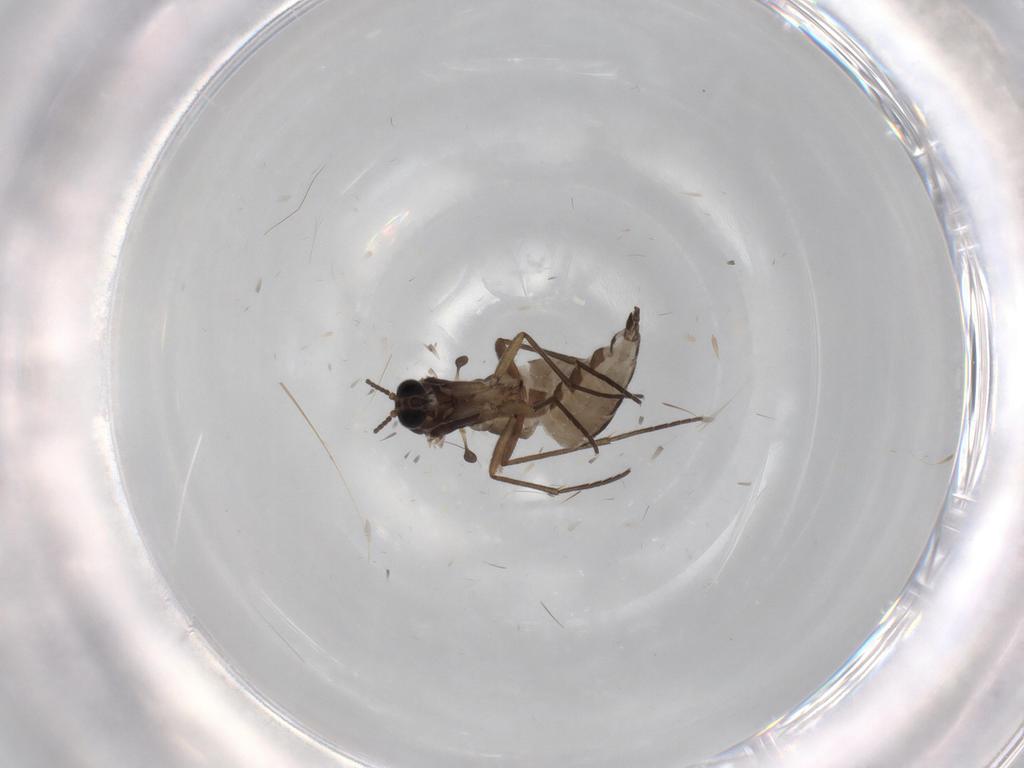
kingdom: Animalia
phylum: Arthropoda
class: Insecta
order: Diptera
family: Sciaridae
